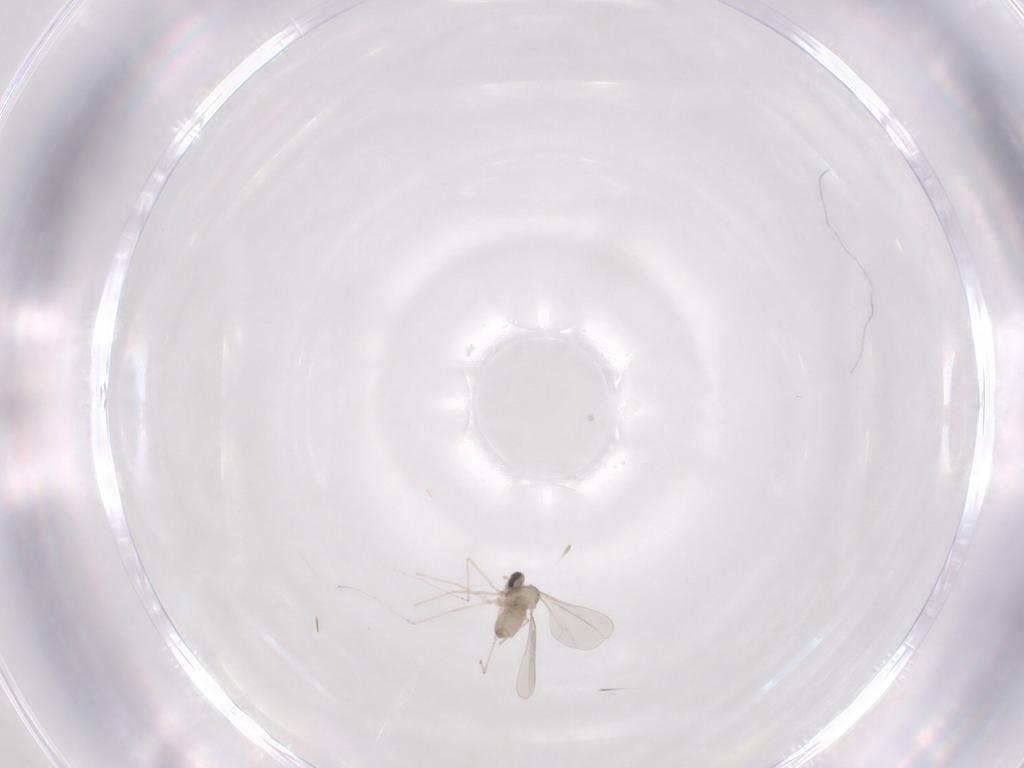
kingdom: Animalia
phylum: Arthropoda
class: Insecta
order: Diptera
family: Cecidomyiidae
